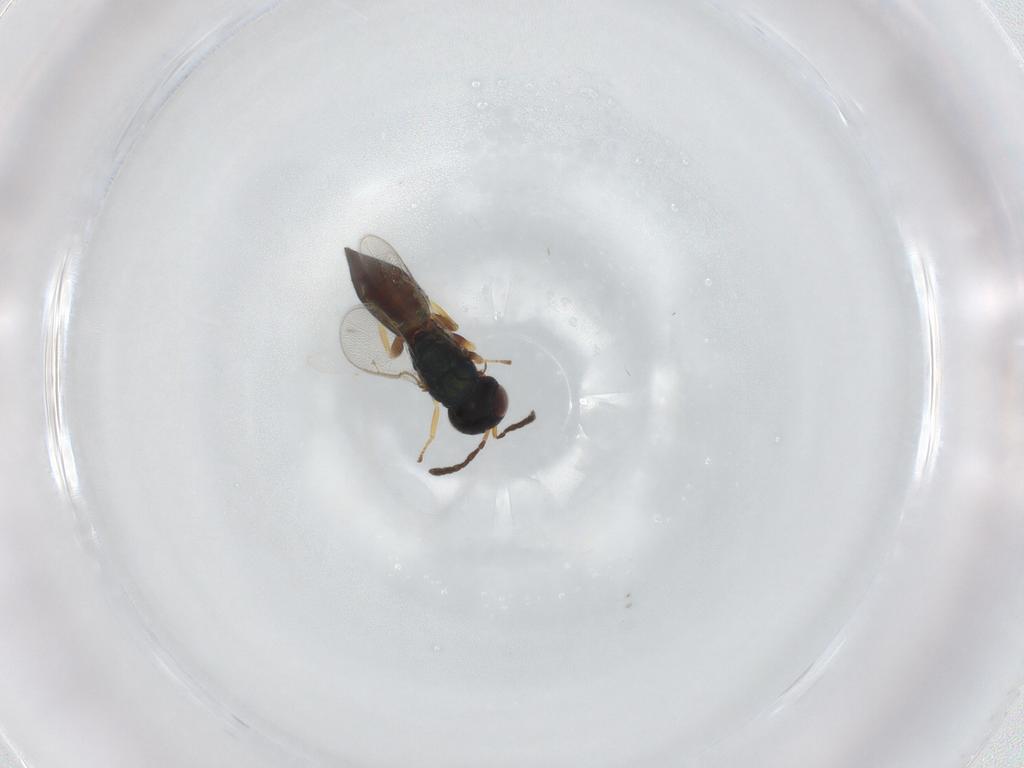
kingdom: Animalia
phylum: Arthropoda
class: Insecta
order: Hymenoptera
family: Pteromalidae
